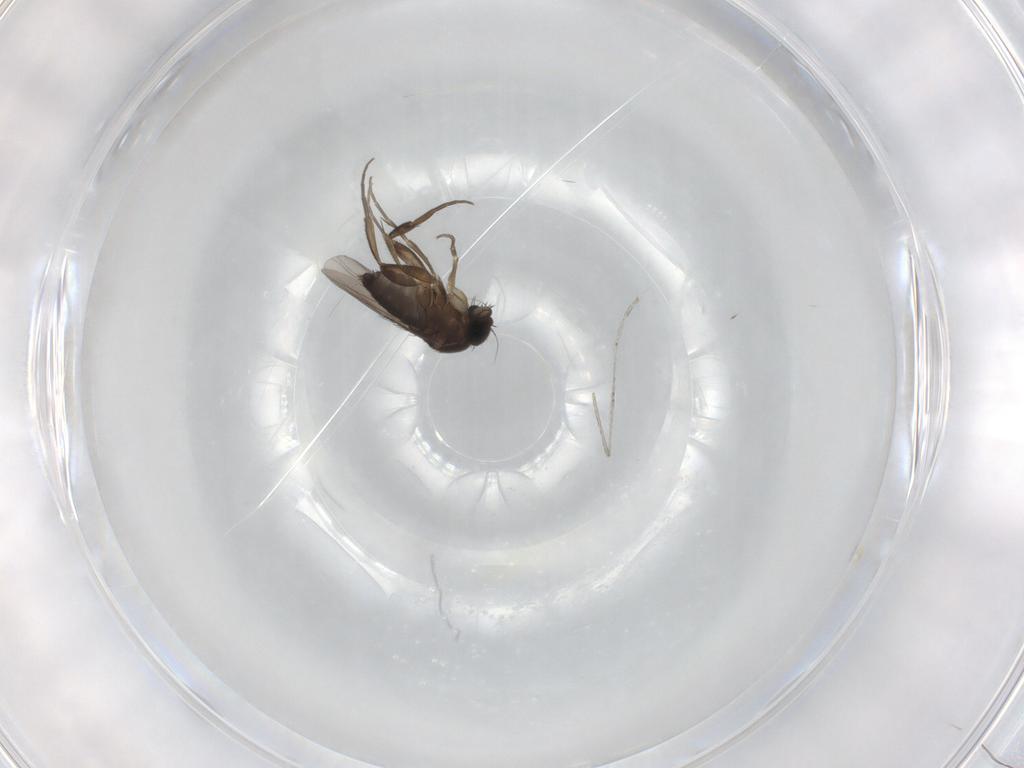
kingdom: Animalia
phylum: Arthropoda
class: Insecta
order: Diptera
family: Phoridae
